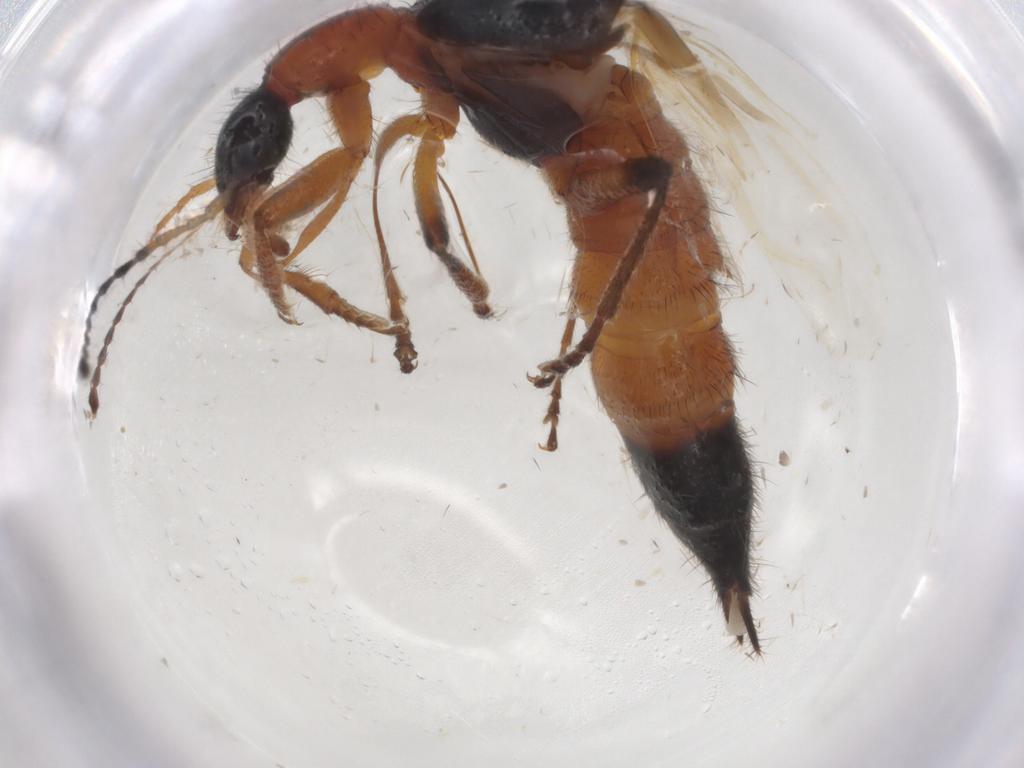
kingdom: Animalia
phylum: Arthropoda
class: Insecta
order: Coleoptera
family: Staphylinidae
